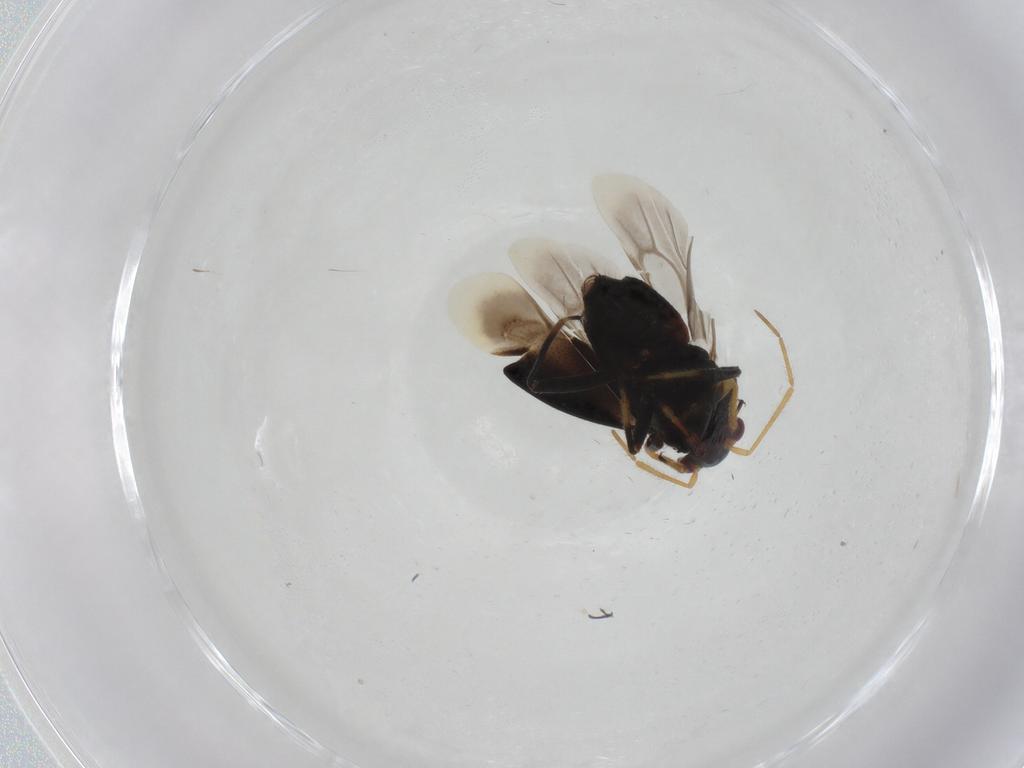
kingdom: Animalia
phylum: Arthropoda
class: Insecta
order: Hemiptera
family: Miridae
